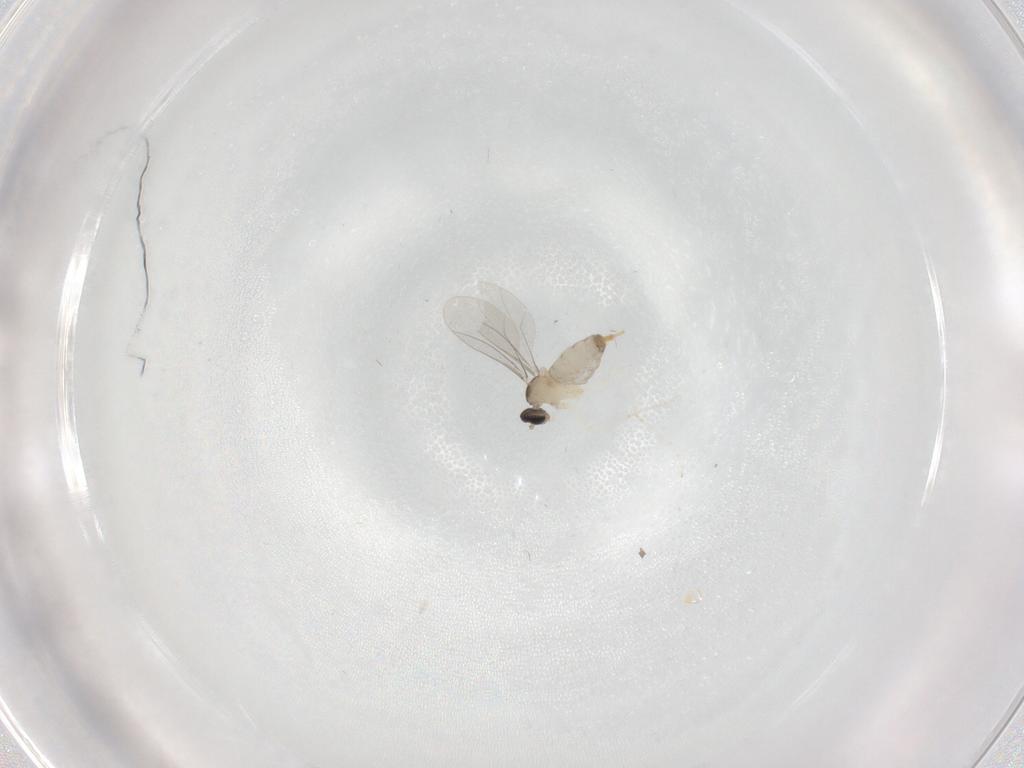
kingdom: Animalia
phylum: Arthropoda
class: Insecta
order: Diptera
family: Cecidomyiidae
